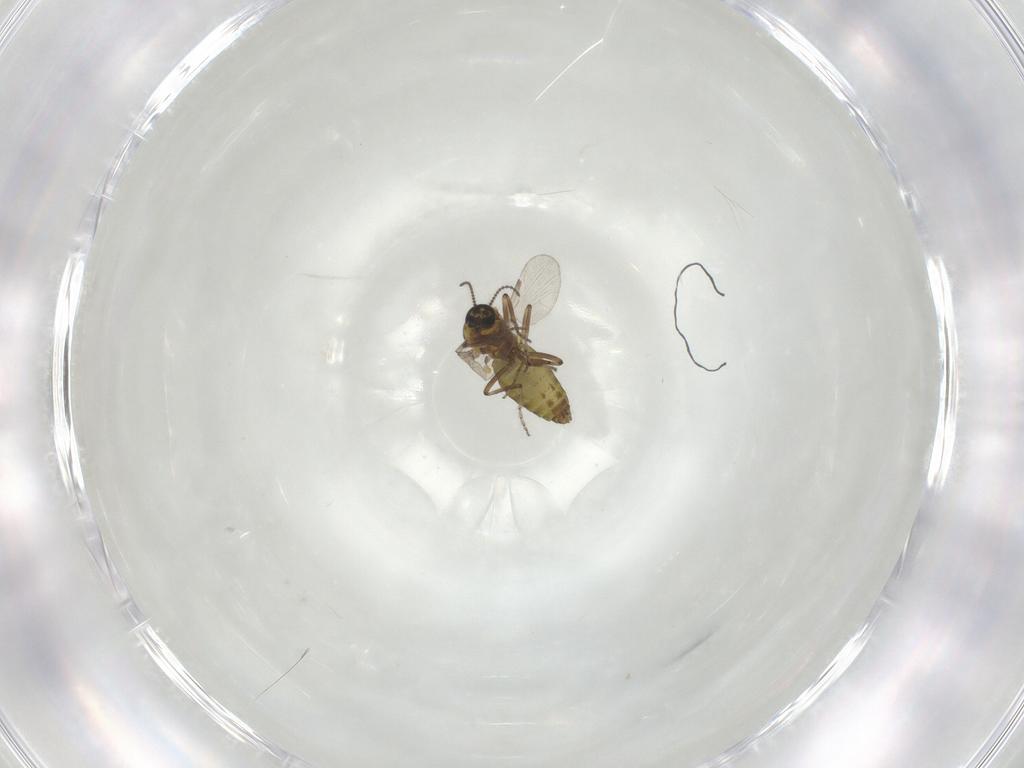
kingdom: Animalia
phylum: Arthropoda
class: Insecta
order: Diptera
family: Ceratopogonidae
